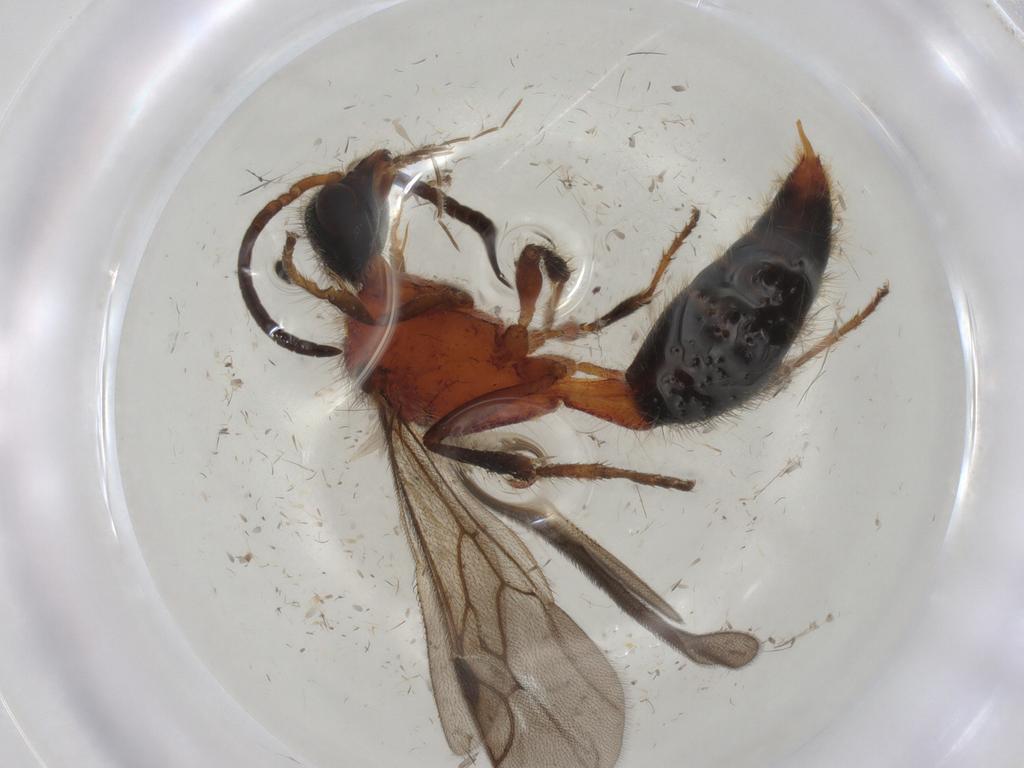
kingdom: Animalia
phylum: Arthropoda
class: Insecta
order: Hymenoptera
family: Mutillidae
